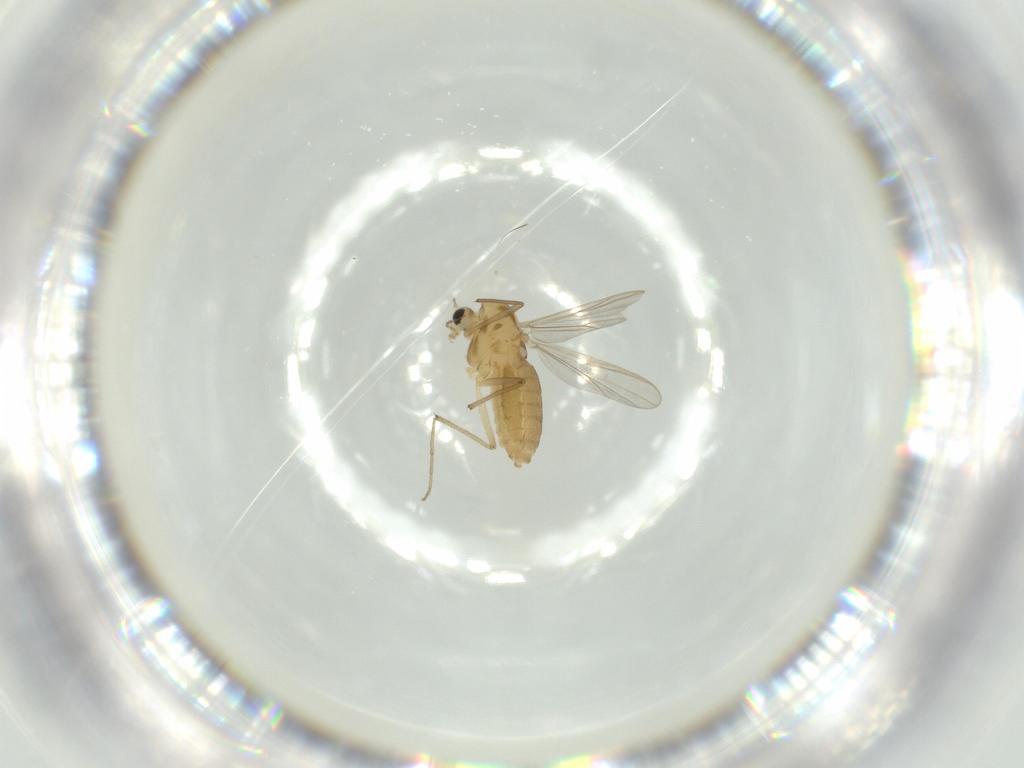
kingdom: Animalia
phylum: Arthropoda
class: Insecta
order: Diptera
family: Chironomidae
